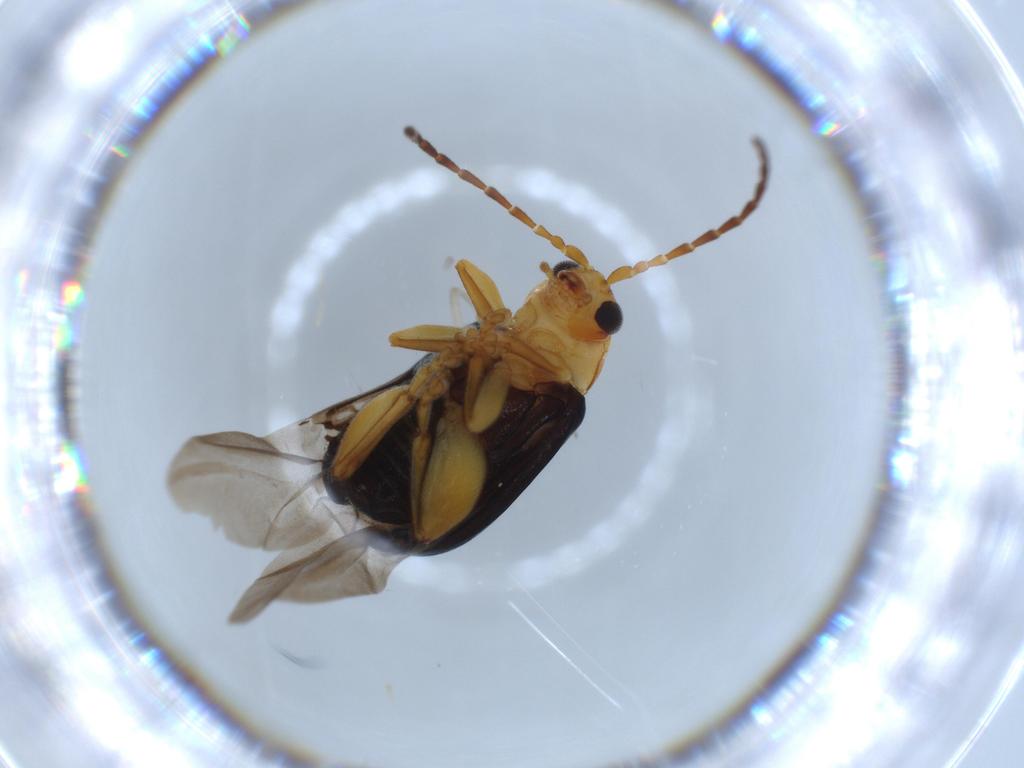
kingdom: Animalia
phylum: Arthropoda
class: Insecta
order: Coleoptera
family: Chrysomelidae
